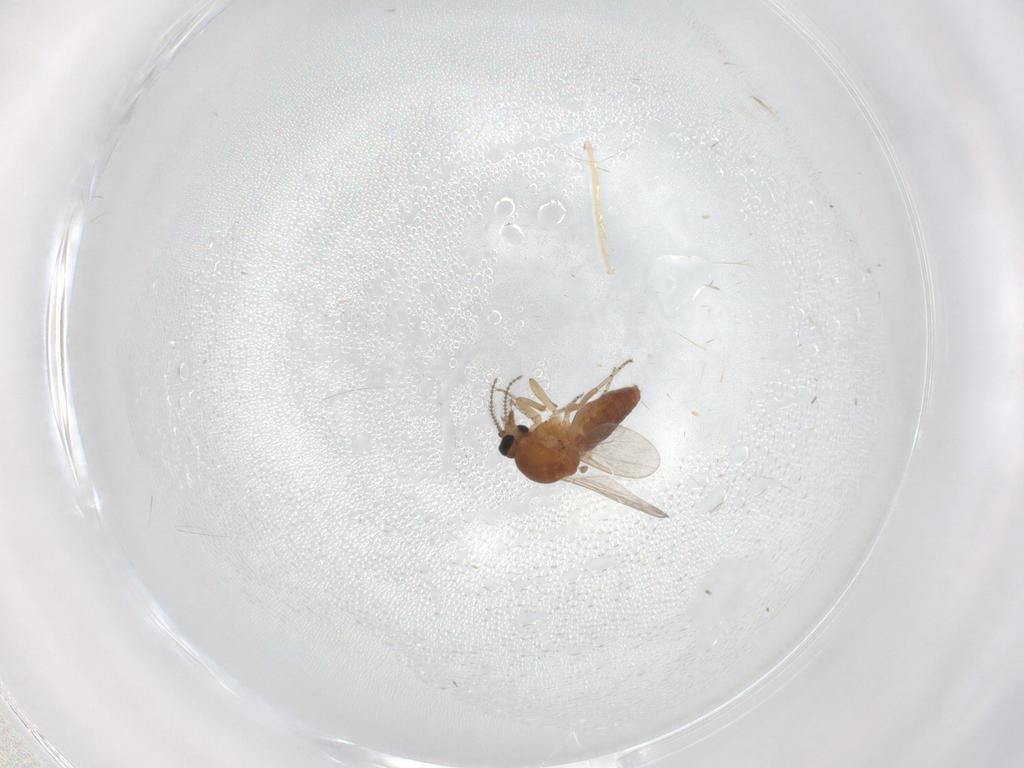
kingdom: Animalia
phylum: Arthropoda
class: Insecta
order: Diptera
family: Ceratopogonidae
